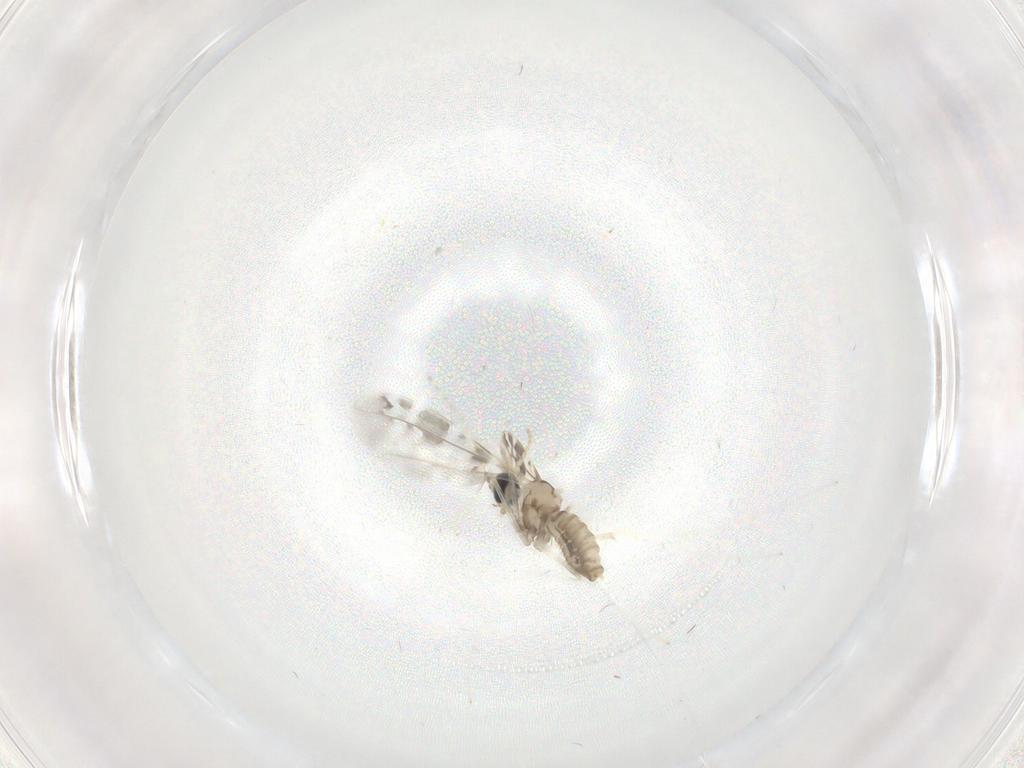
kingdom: Animalia
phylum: Arthropoda
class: Insecta
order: Diptera
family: Cecidomyiidae
